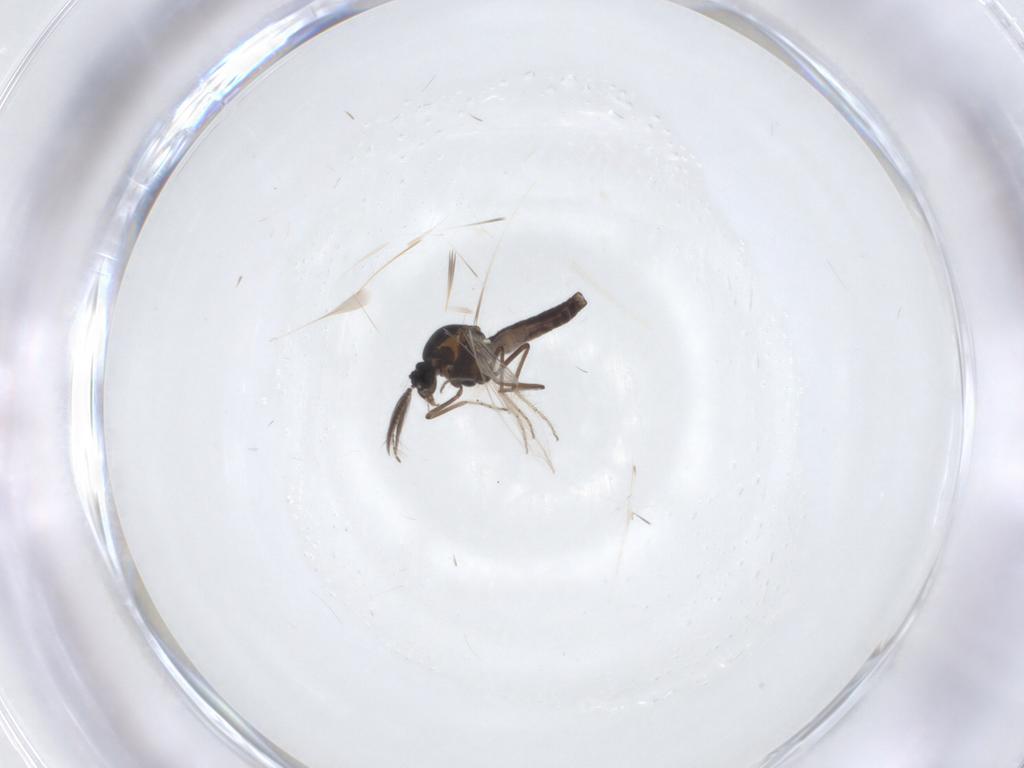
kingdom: Animalia
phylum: Arthropoda
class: Insecta
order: Diptera
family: Ceratopogonidae
